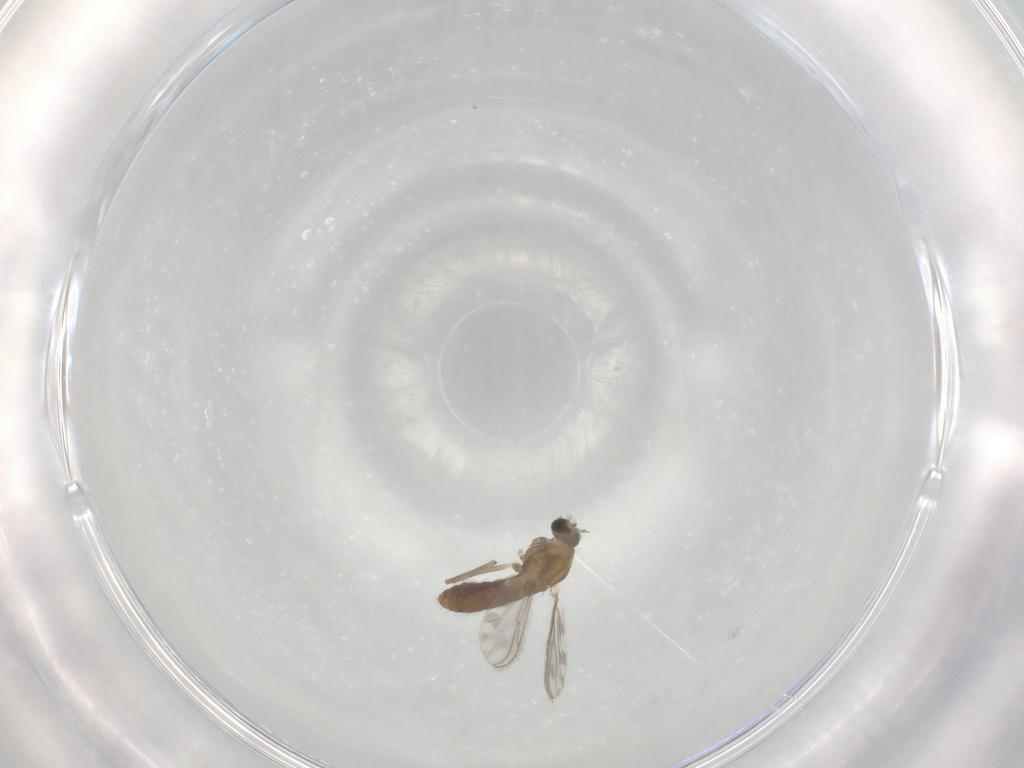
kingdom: Animalia
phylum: Arthropoda
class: Insecta
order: Diptera
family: Chironomidae
